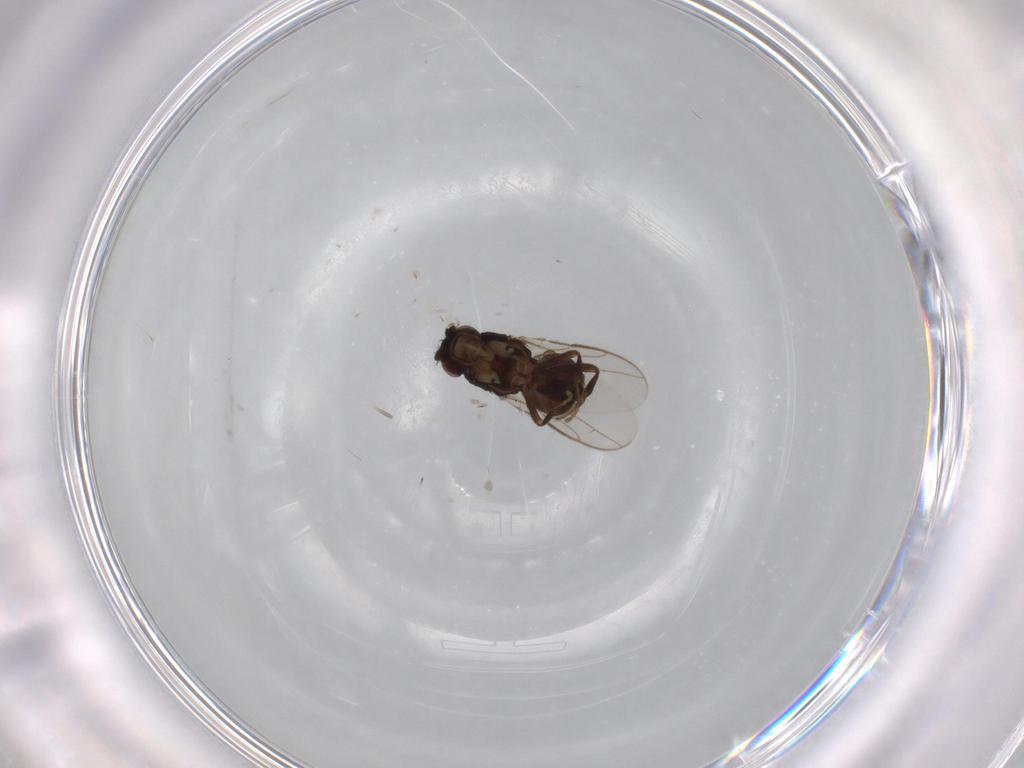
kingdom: Animalia
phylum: Arthropoda
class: Insecta
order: Diptera
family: Sphaeroceridae
